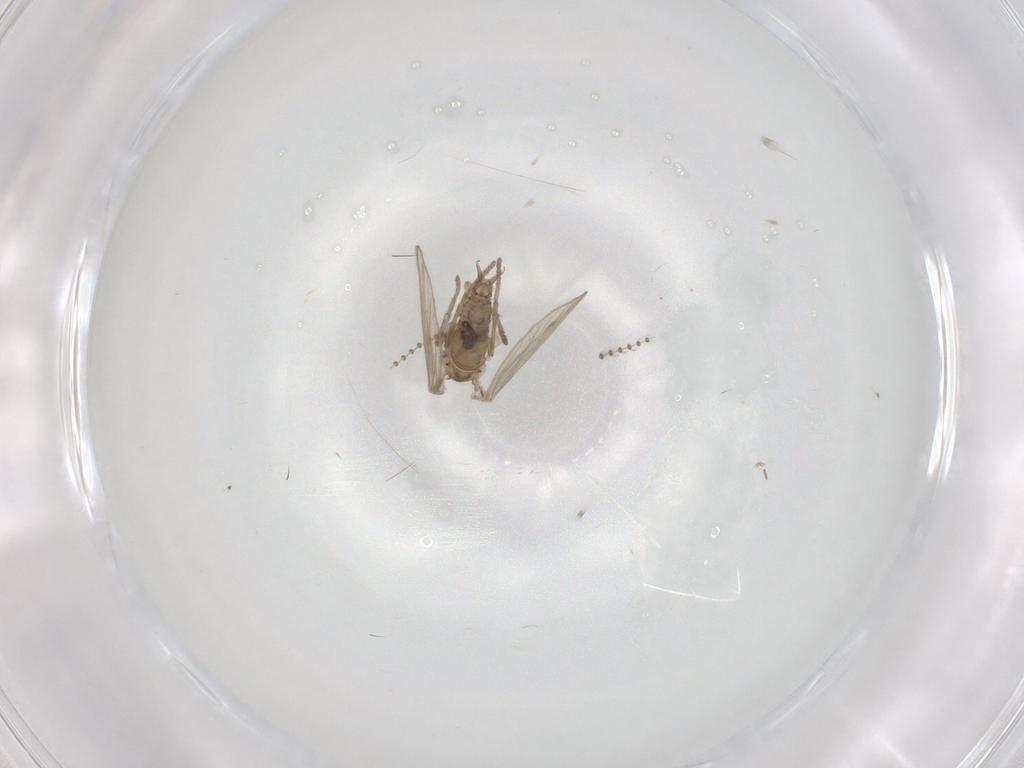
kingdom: Animalia
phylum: Arthropoda
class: Insecta
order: Diptera
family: Psychodidae
